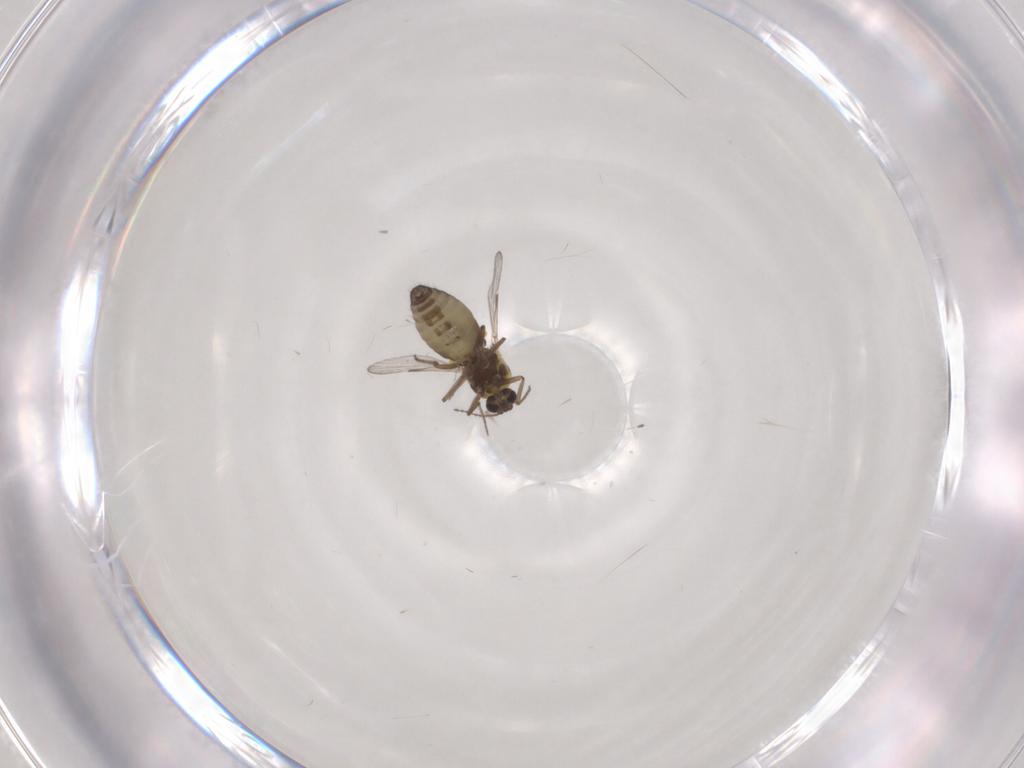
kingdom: Animalia
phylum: Arthropoda
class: Insecta
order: Diptera
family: Ceratopogonidae
